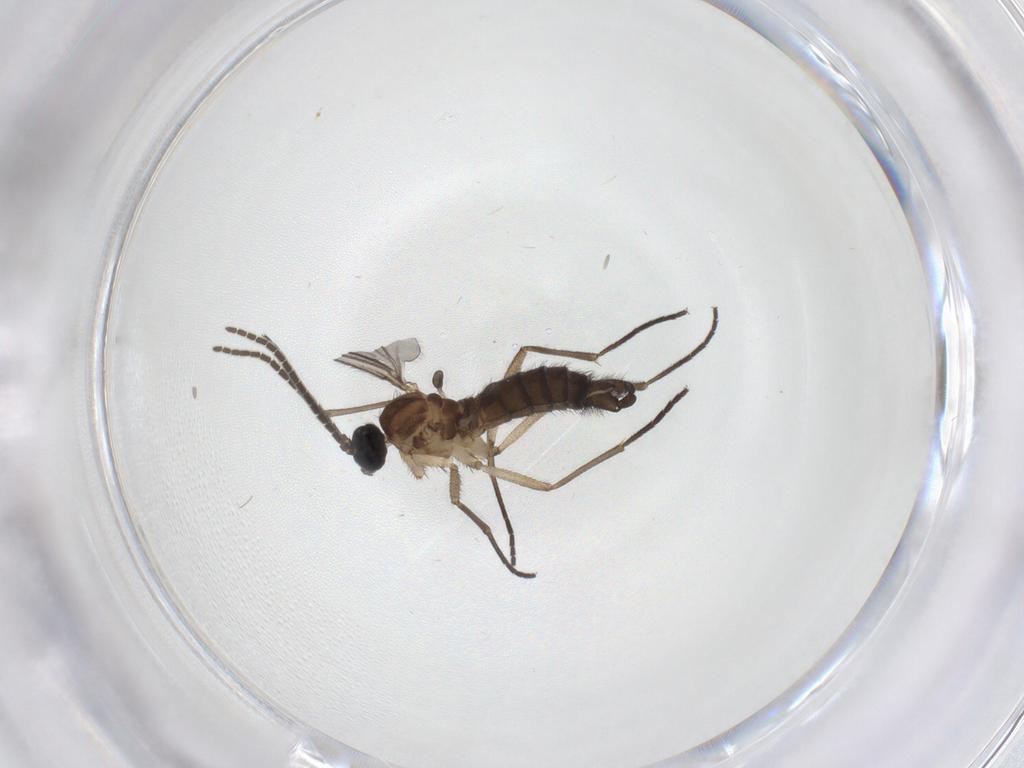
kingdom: Animalia
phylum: Arthropoda
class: Insecta
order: Diptera
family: Sciaridae
